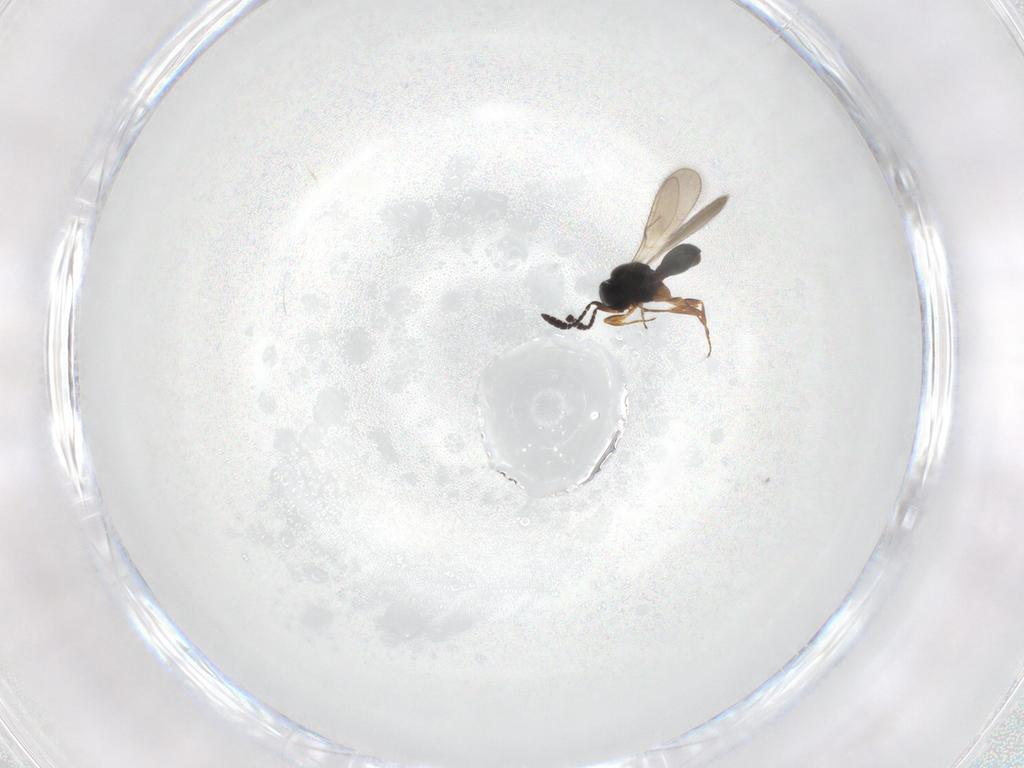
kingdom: Animalia
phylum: Arthropoda
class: Insecta
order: Hymenoptera
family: Scelionidae
